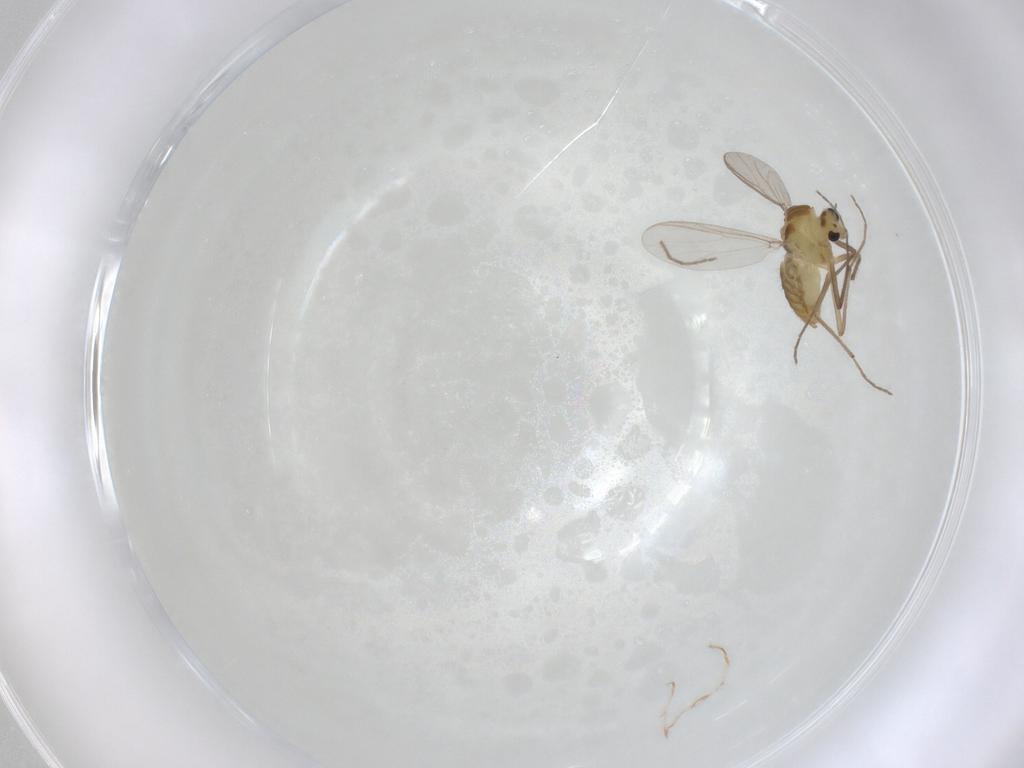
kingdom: Animalia
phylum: Arthropoda
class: Insecta
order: Diptera
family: Chironomidae
